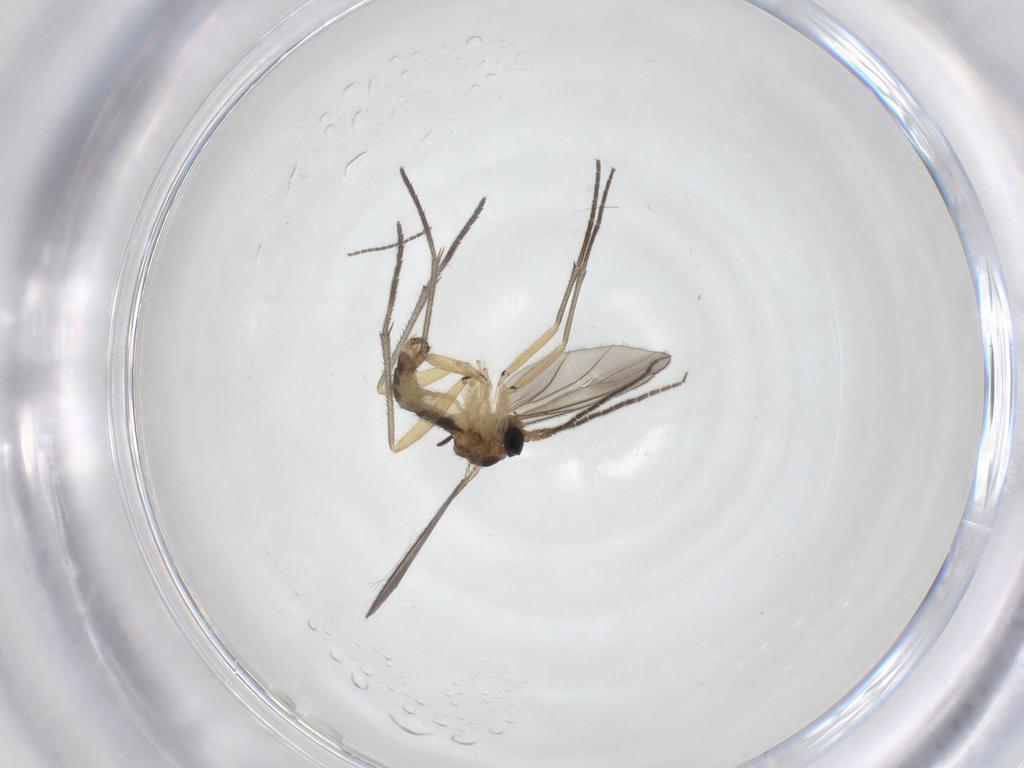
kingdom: Animalia
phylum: Arthropoda
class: Insecta
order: Diptera
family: Sciaridae
